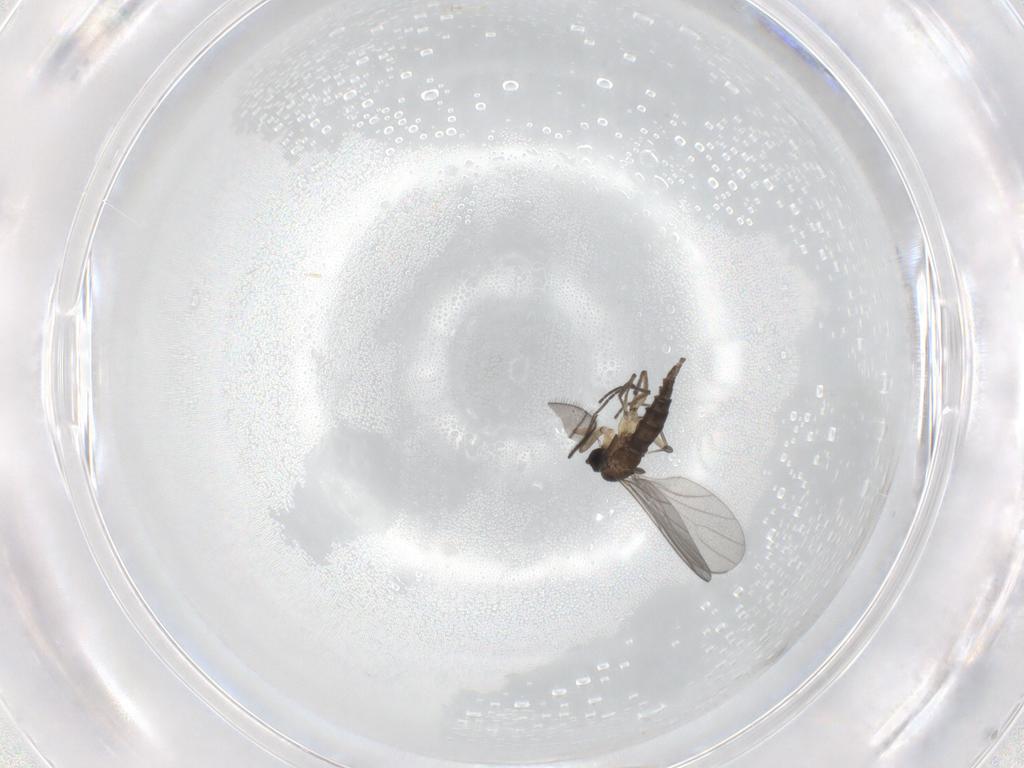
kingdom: Animalia
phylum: Arthropoda
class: Insecta
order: Diptera
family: Sciaridae
